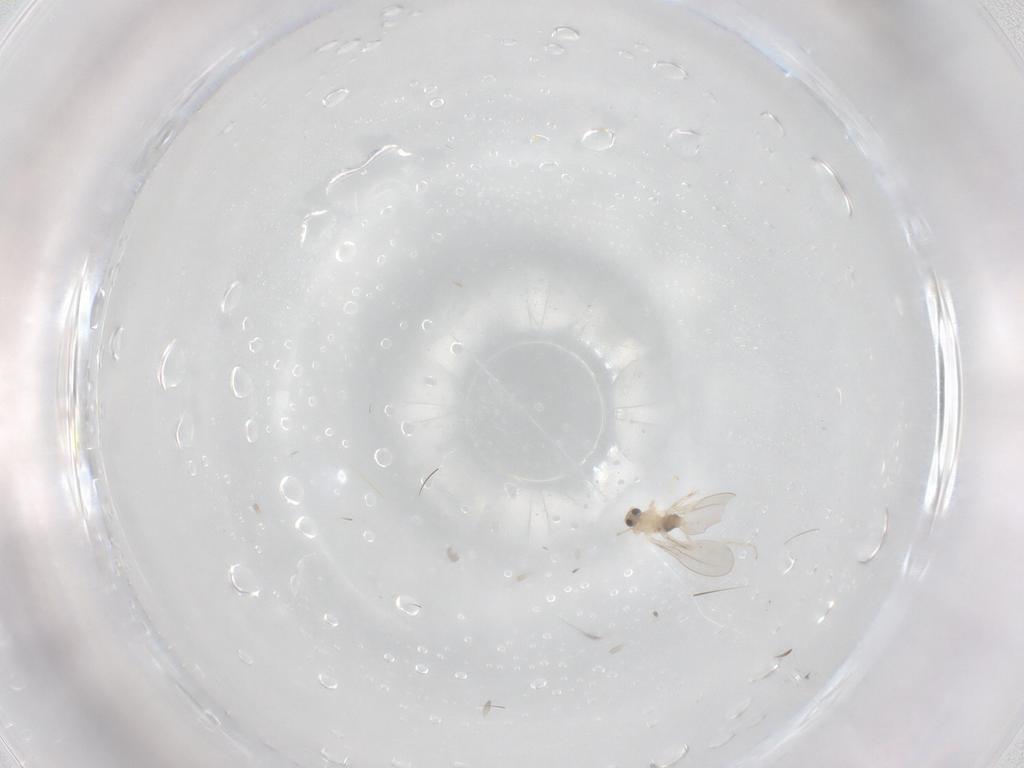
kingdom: Animalia
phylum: Arthropoda
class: Insecta
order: Diptera
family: Cecidomyiidae
